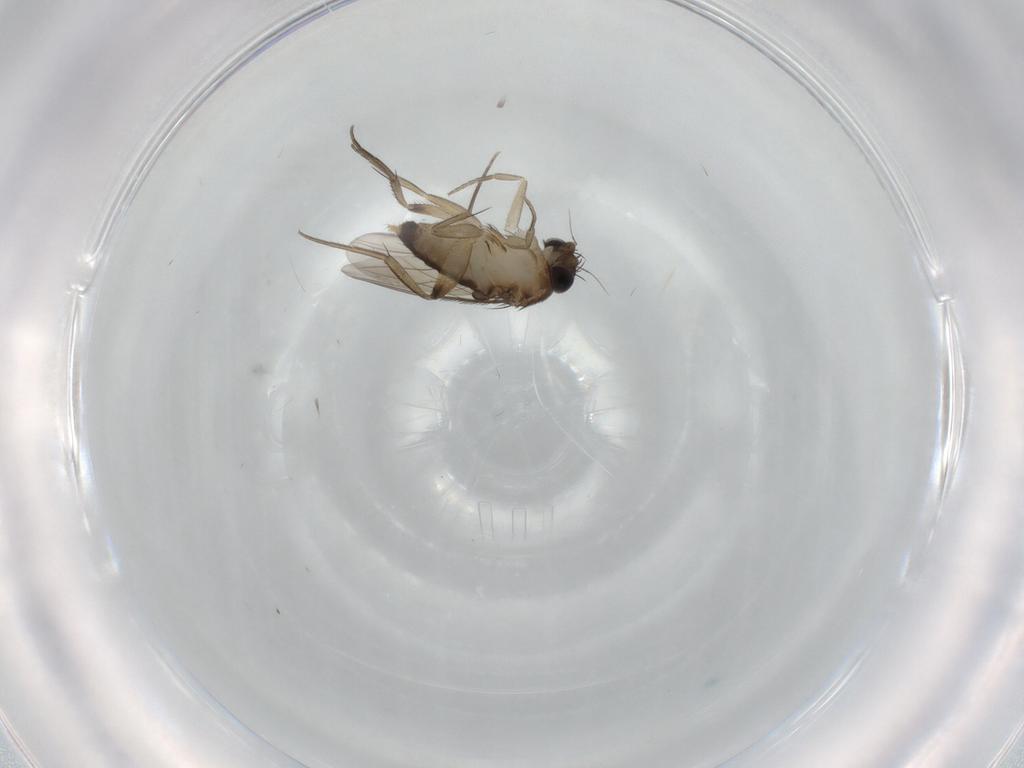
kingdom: Animalia
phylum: Arthropoda
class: Insecta
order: Diptera
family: Phoridae
